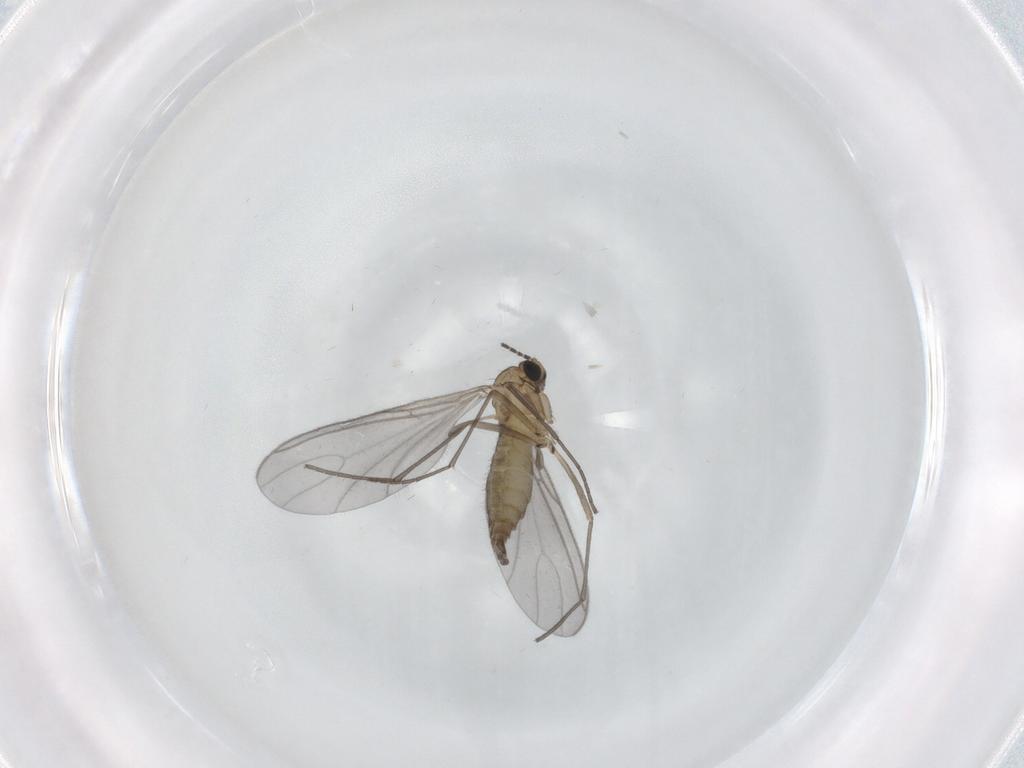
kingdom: Animalia
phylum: Arthropoda
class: Insecta
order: Diptera
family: Sciaridae
